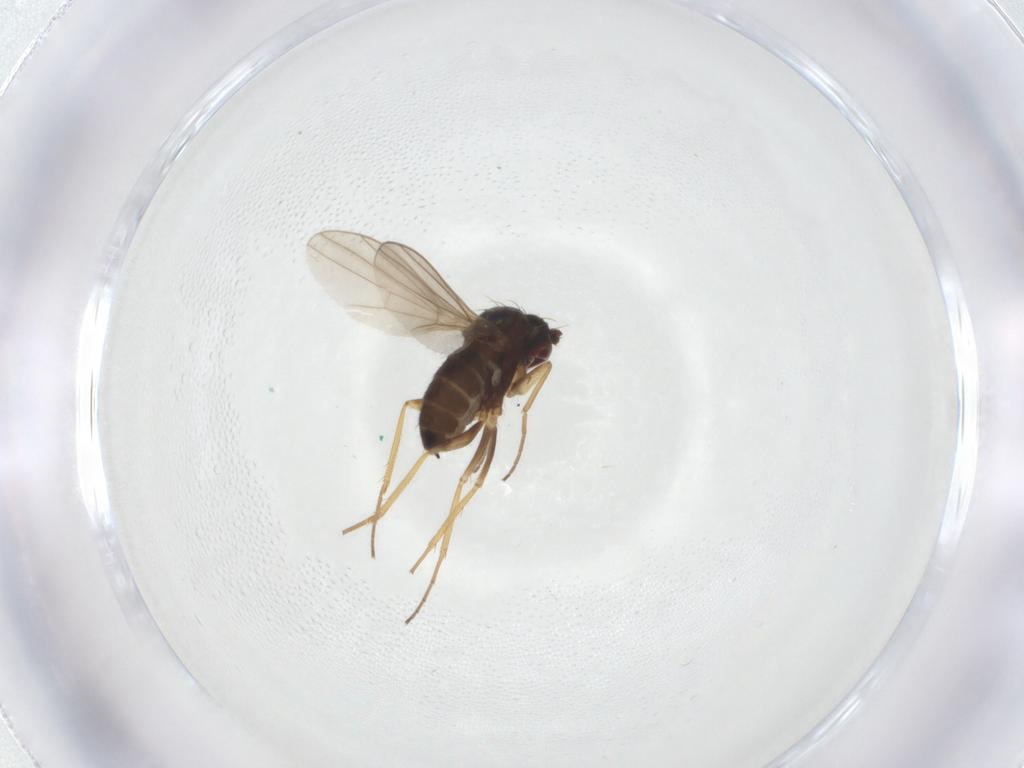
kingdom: Animalia
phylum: Arthropoda
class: Insecta
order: Diptera
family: Dolichopodidae
